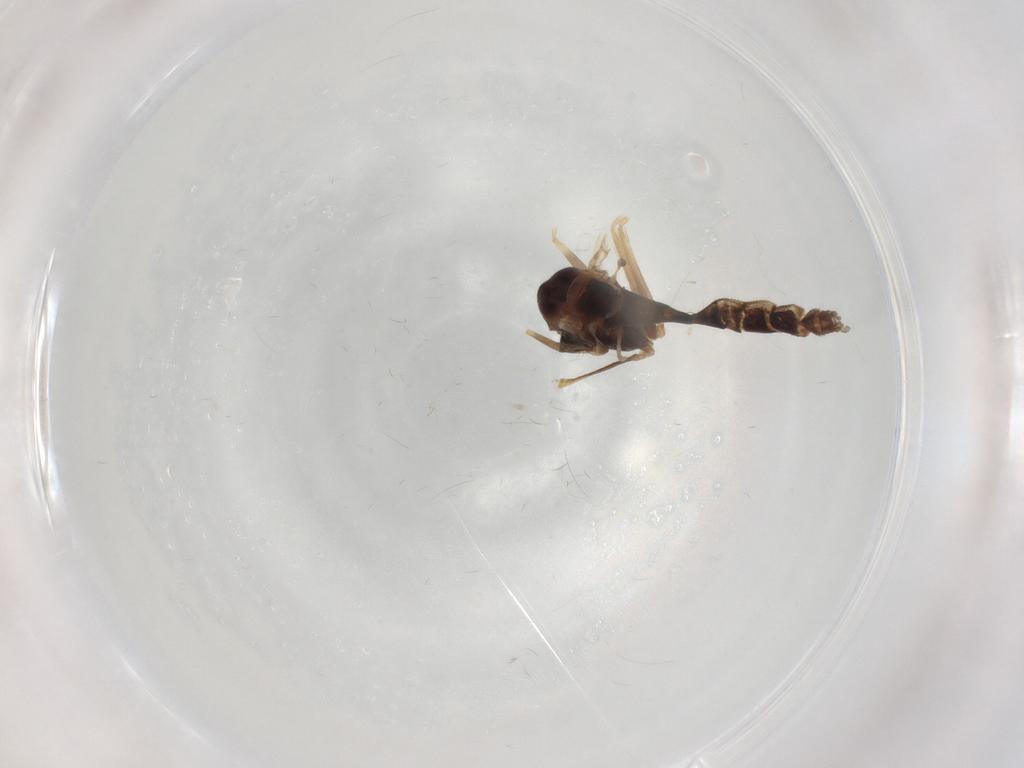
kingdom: Animalia
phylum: Arthropoda
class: Insecta
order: Diptera
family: Chironomidae
